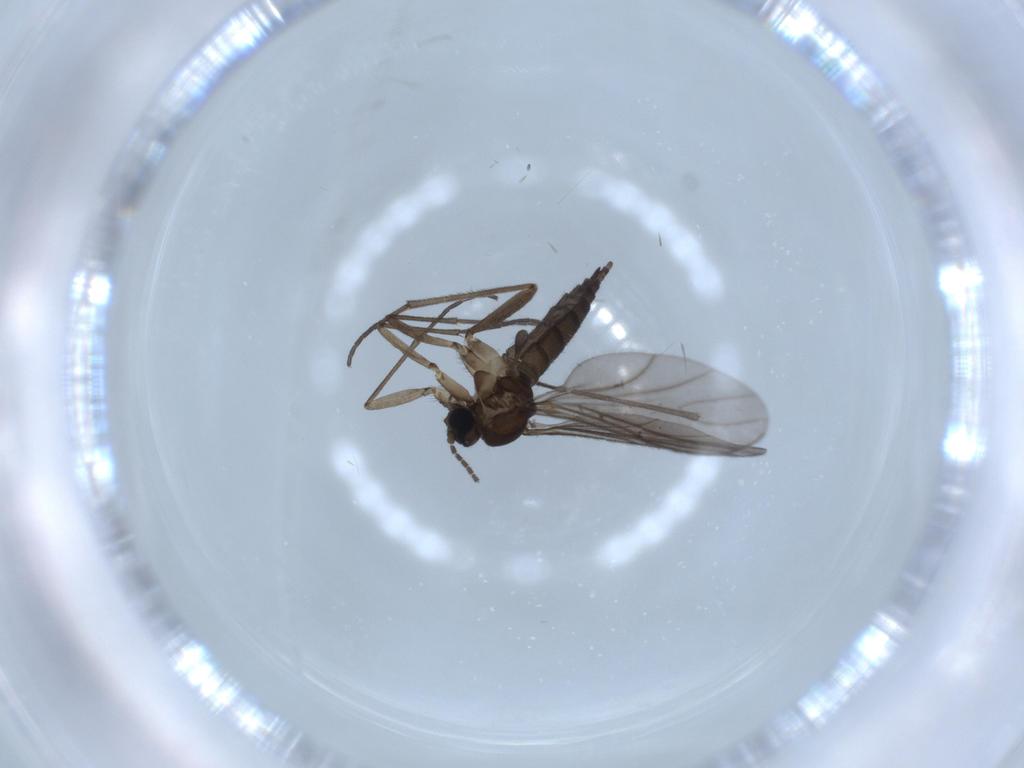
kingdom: Animalia
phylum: Arthropoda
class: Insecta
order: Diptera
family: Sciaridae
